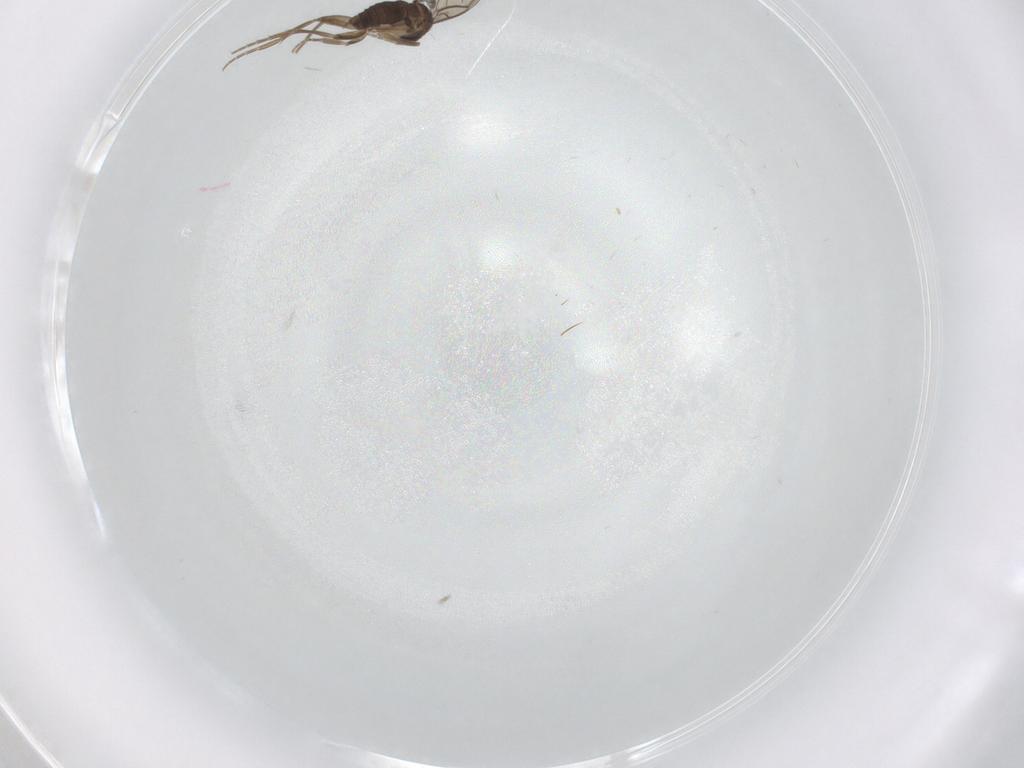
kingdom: Animalia
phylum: Arthropoda
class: Insecta
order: Diptera
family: Phoridae
